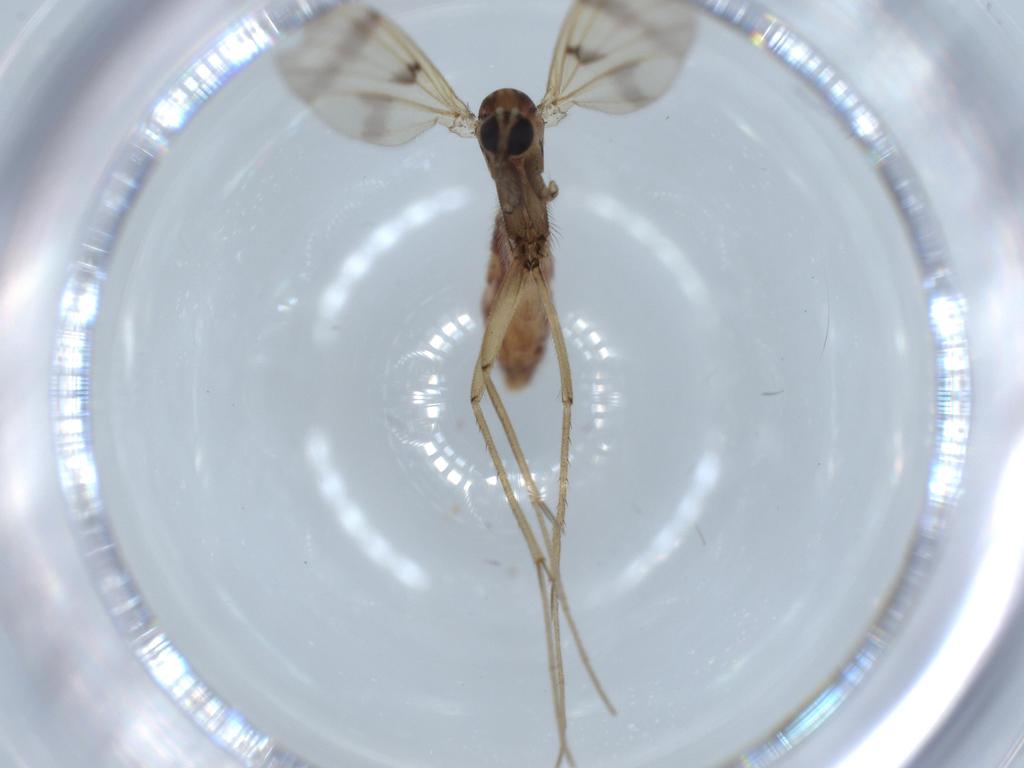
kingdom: Animalia
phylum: Arthropoda
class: Insecta
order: Diptera
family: Mycetophilidae
